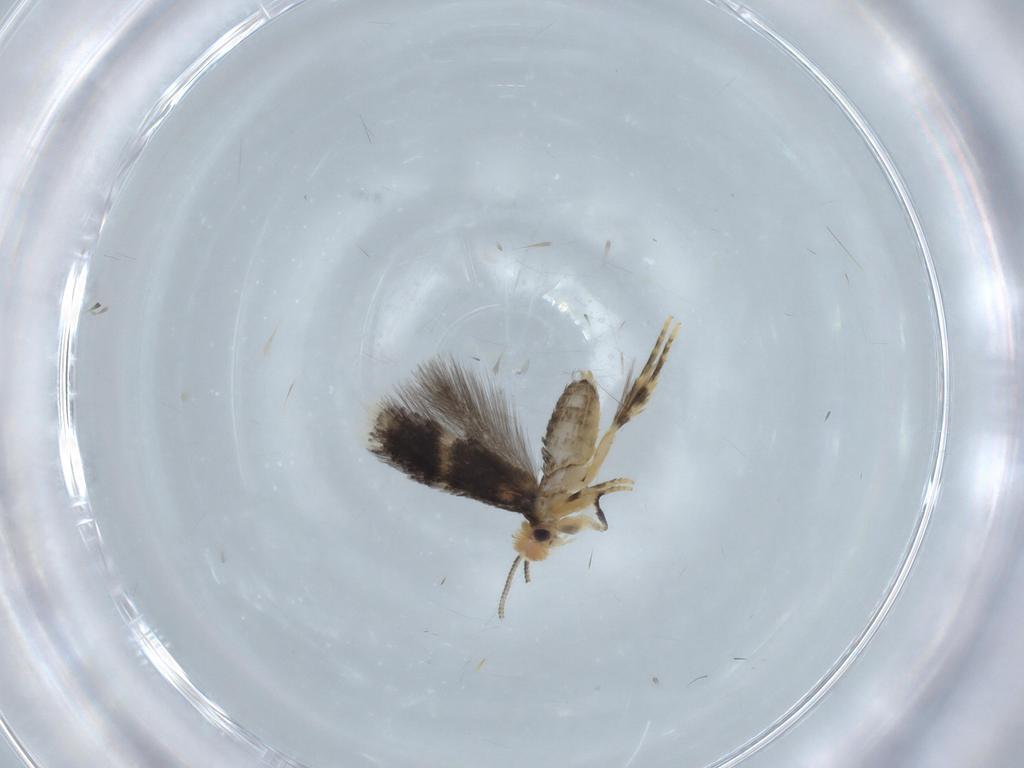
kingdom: Animalia
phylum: Arthropoda
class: Insecta
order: Lepidoptera
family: Nepticulidae
